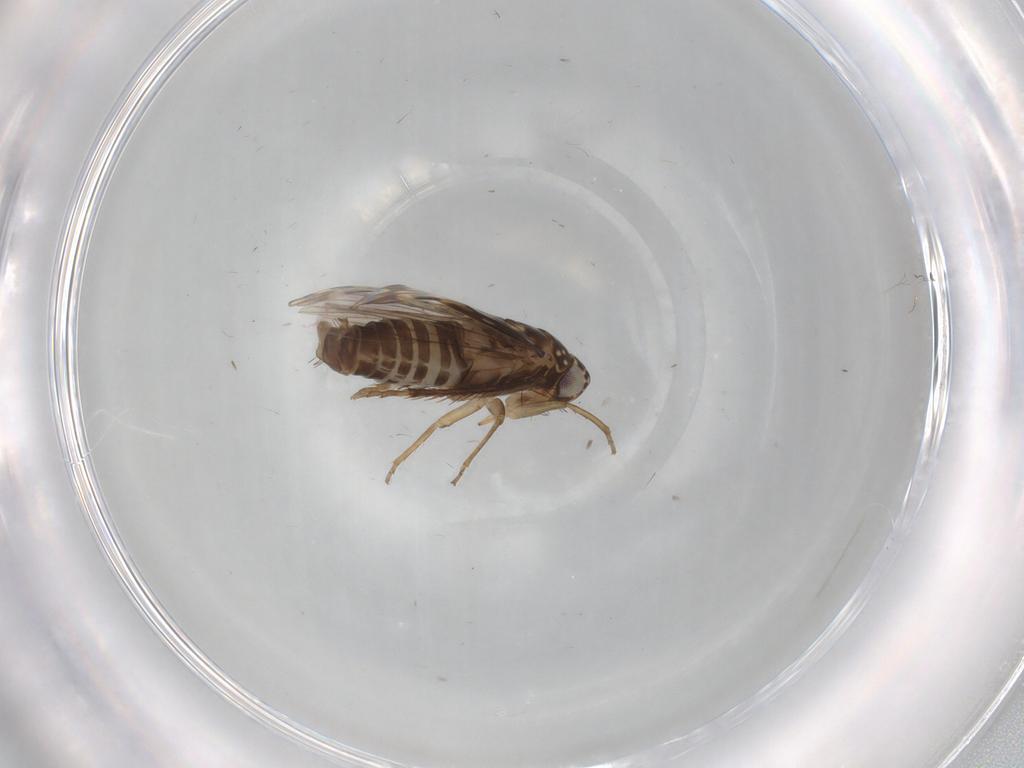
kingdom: Animalia
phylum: Arthropoda
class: Insecta
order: Hemiptera
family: Cicadellidae
